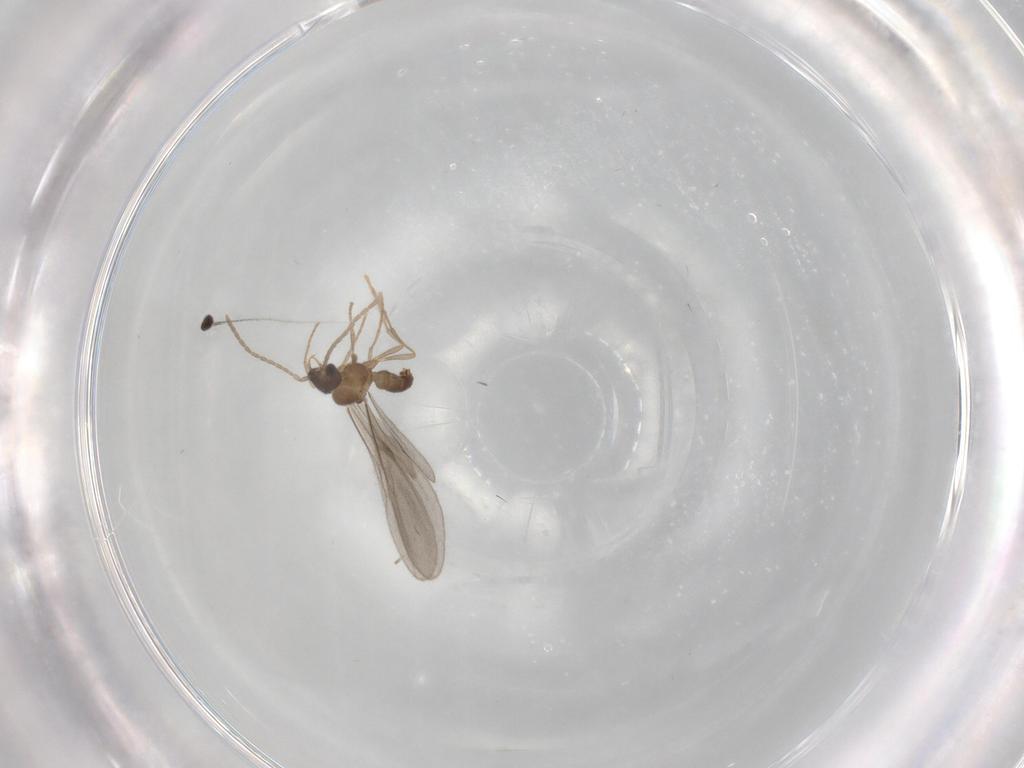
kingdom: Animalia
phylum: Arthropoda
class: Insecta
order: Hymenoptera
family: Formicidae
